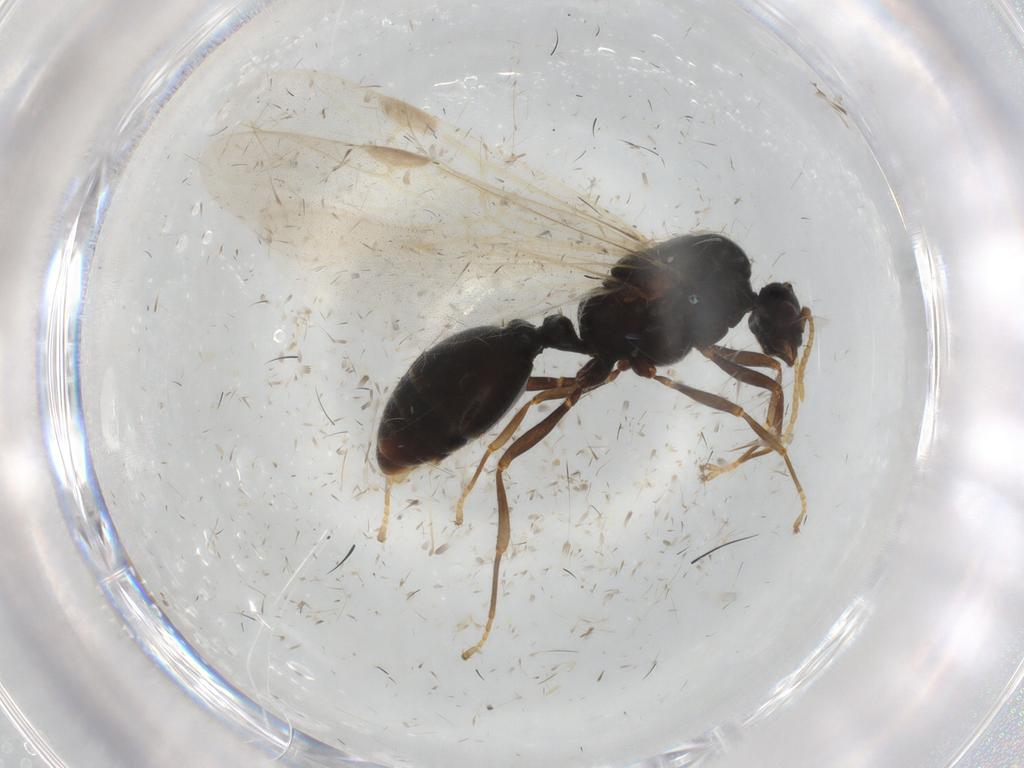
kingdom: Animalia
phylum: Arthropoda
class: Insecta
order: Hymenoptera
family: Formicidae
